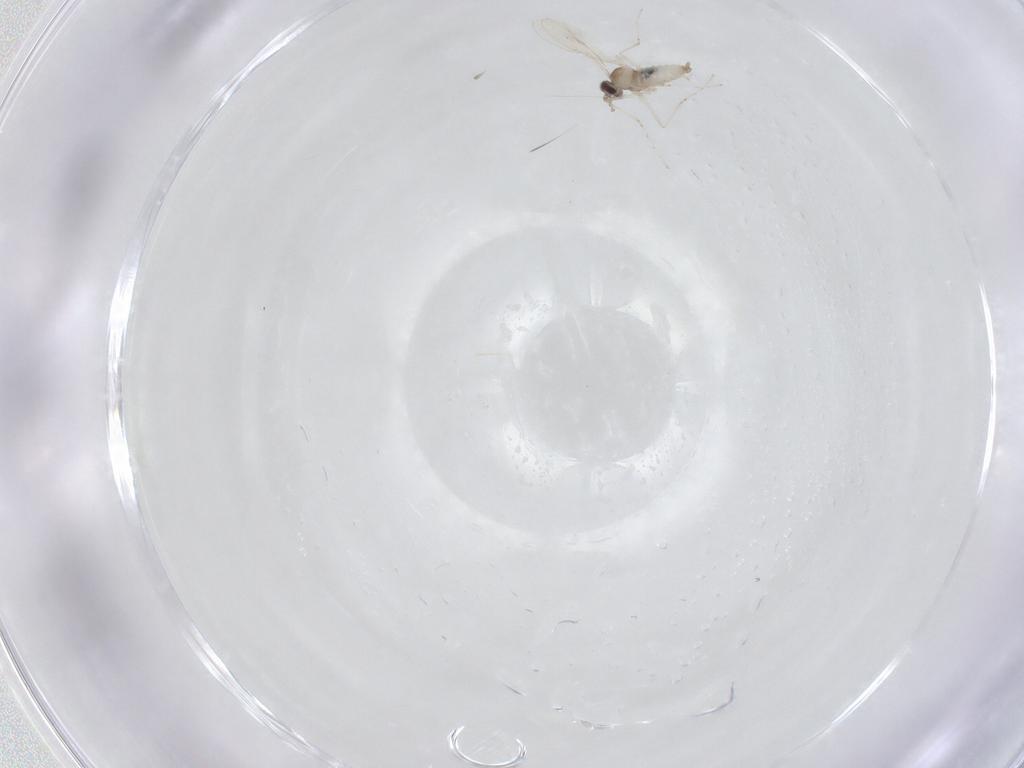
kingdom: Animalia
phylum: Arthropoda
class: Insecta
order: Diptera
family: Cecidomyiidae
